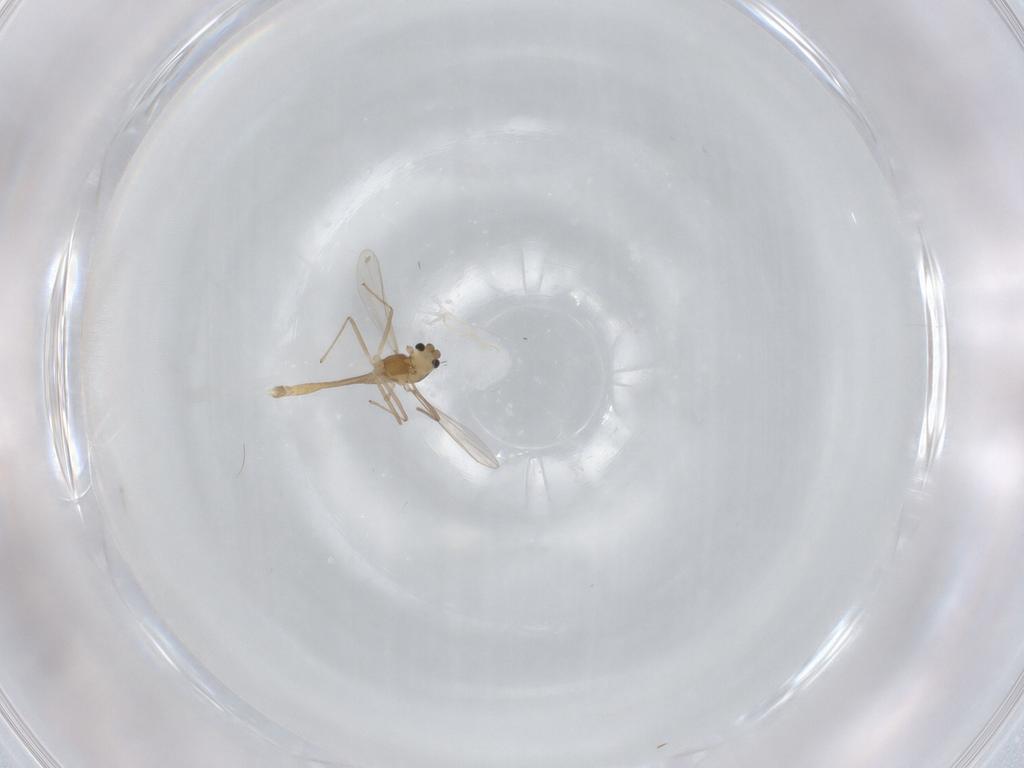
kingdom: Animalia
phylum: Arthropoda
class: Insecta
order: Diptera
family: Chironomidae
